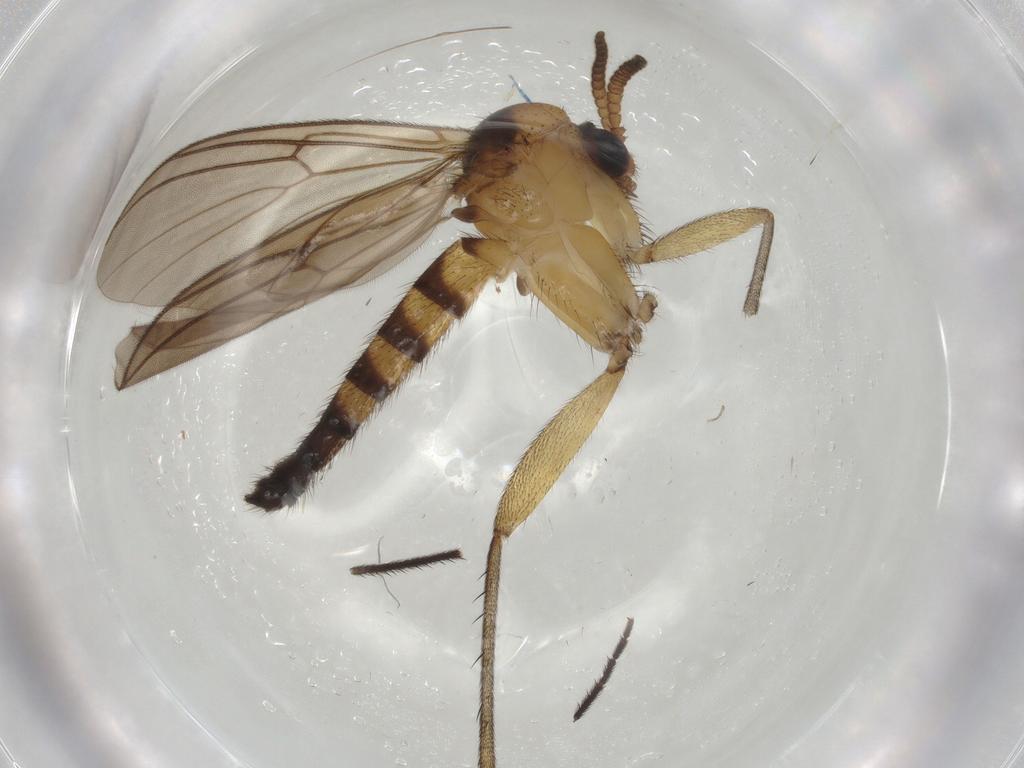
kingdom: Animalia
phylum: Arthropoda
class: Insecta
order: Diptera
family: Mycetophilidae
